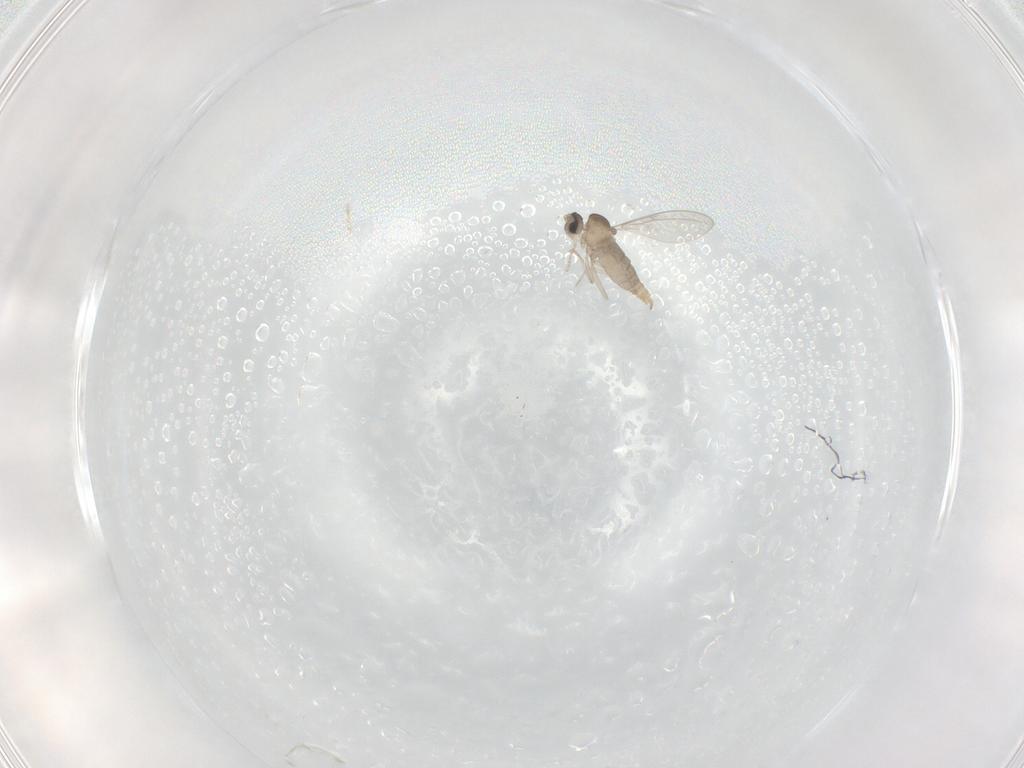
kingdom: Animalia
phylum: Arthropoda
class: Insecta
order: Diptera
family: Cecidomyiidae
